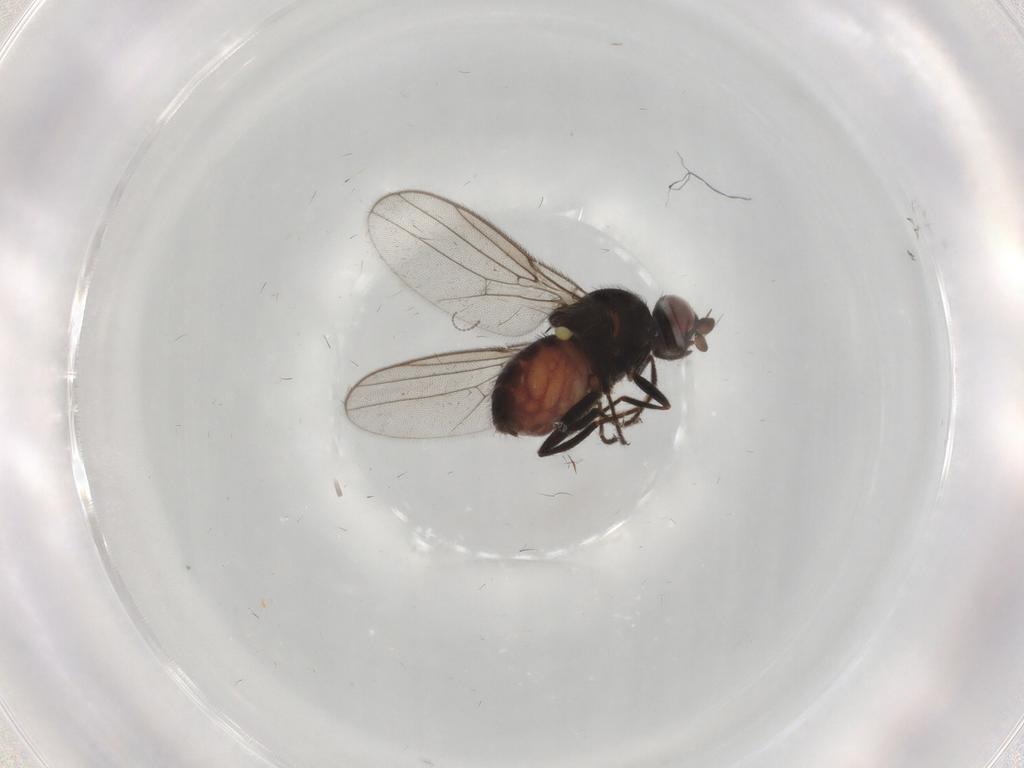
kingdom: Animalia
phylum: Arthropoda
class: Insecta
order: Diptera
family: Chloropidae
